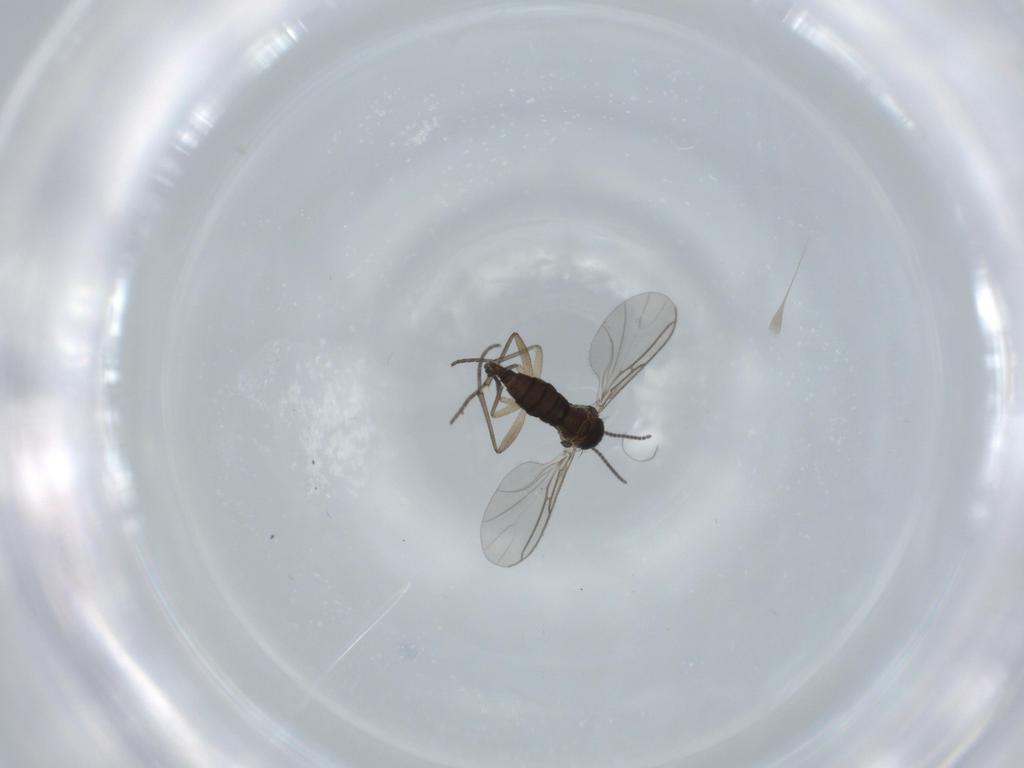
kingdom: Animalia
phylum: Arthropoda
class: Insecta
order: Diptera
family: Sciaridae
